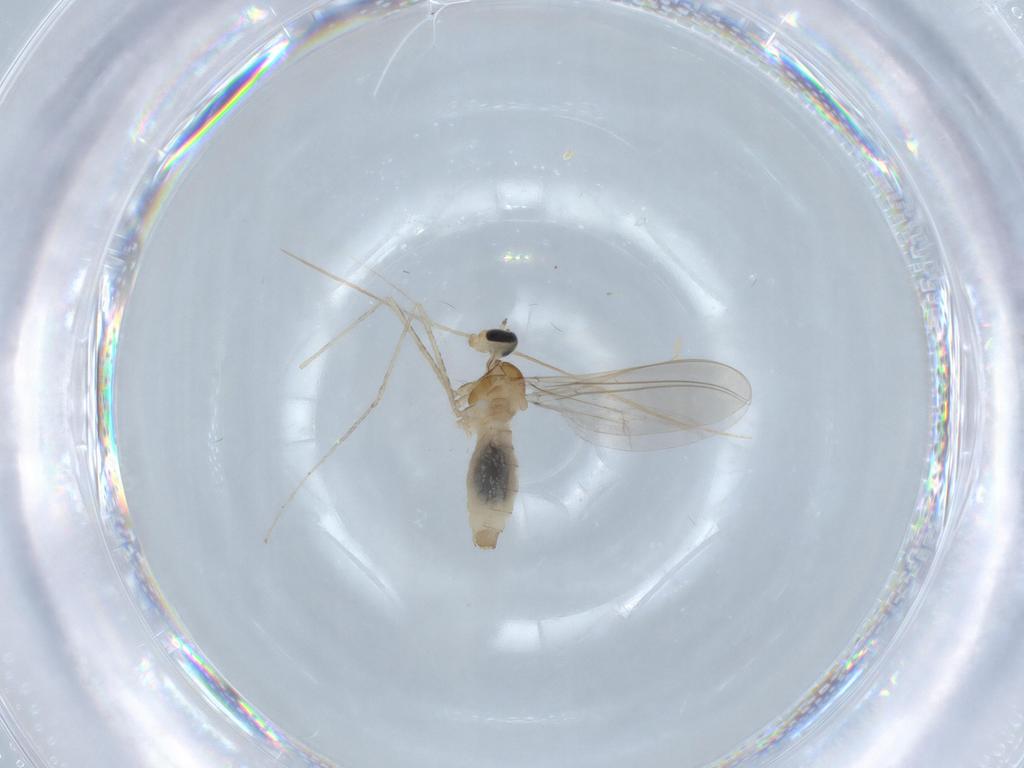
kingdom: Animalia
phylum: Arthropoda
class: Insecta
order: Diptera
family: Cecidomyiidae
